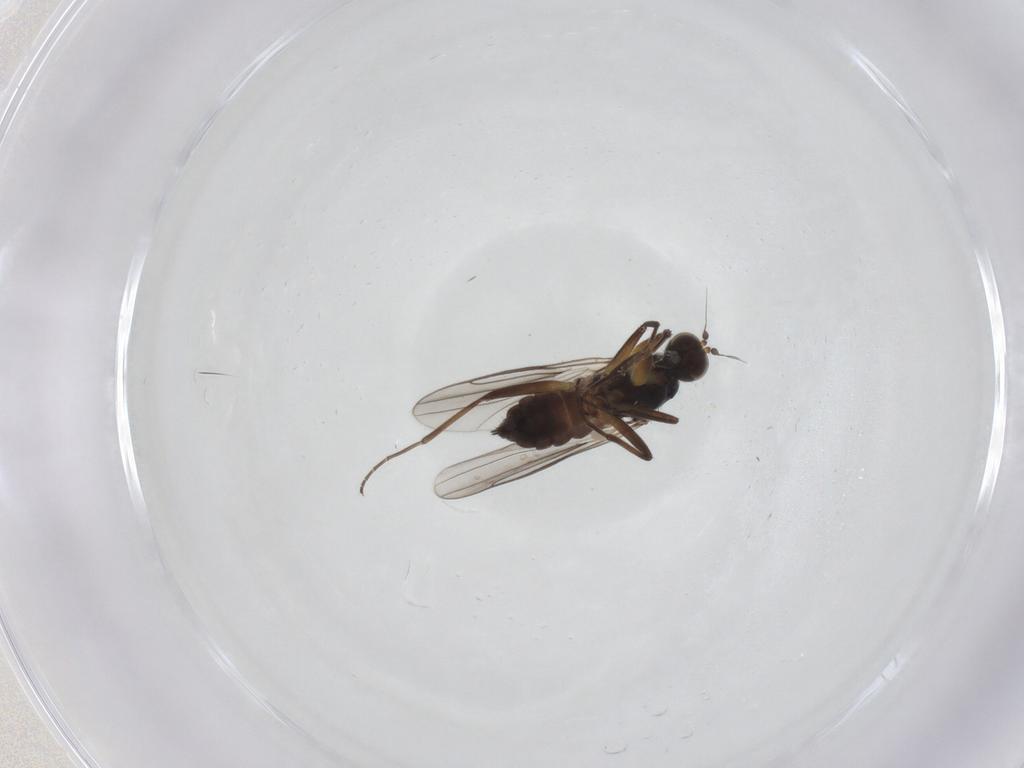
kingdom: Animalia
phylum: Arthropoda
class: Insecta
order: Diptera
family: Hybotidae
